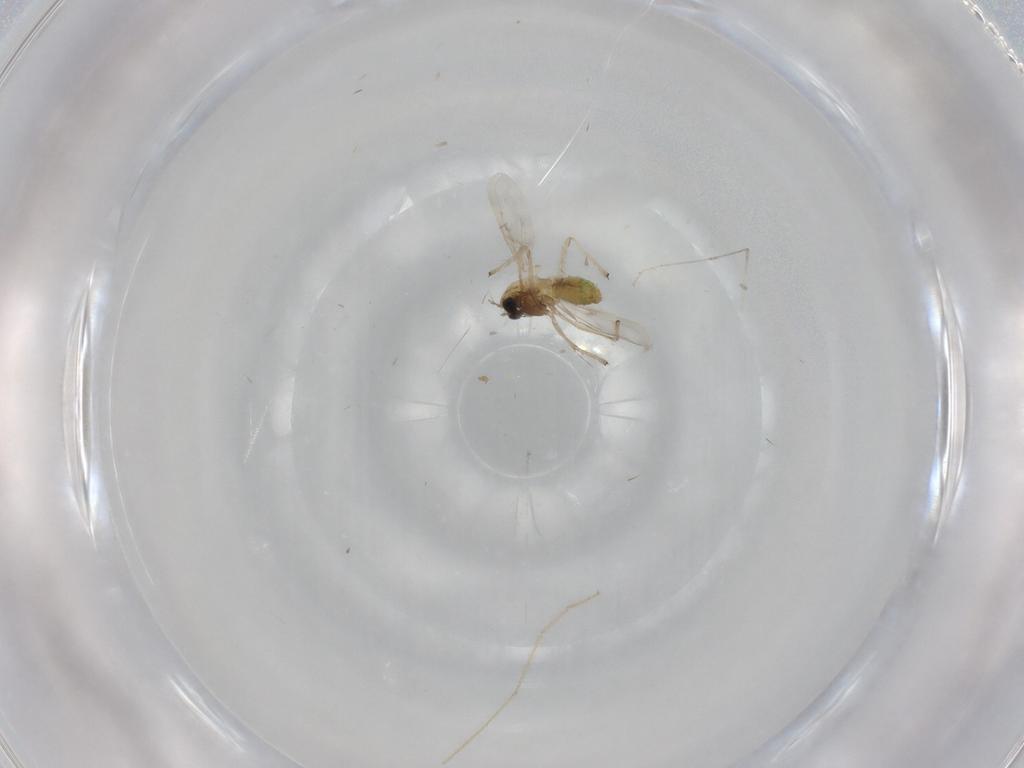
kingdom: Animalia
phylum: Arthropoda
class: Insecta
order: Diptera
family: Chironomidae
